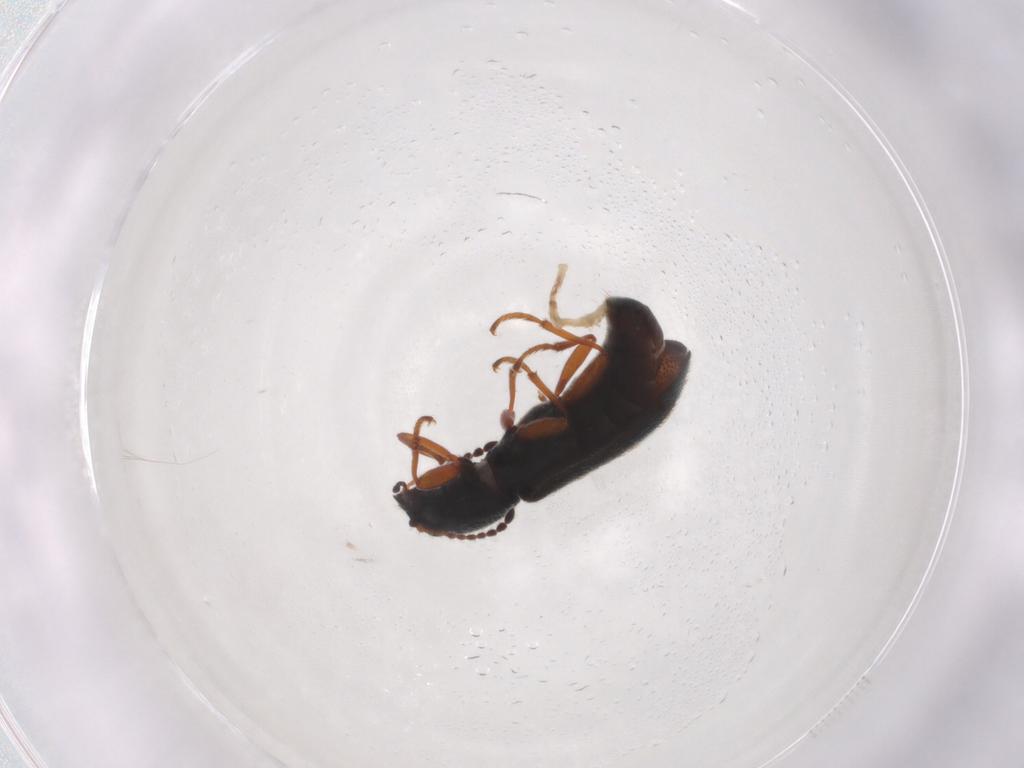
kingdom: Animalia
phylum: Arthropoda
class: Insecta
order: Coleoptera
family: Melyridae
